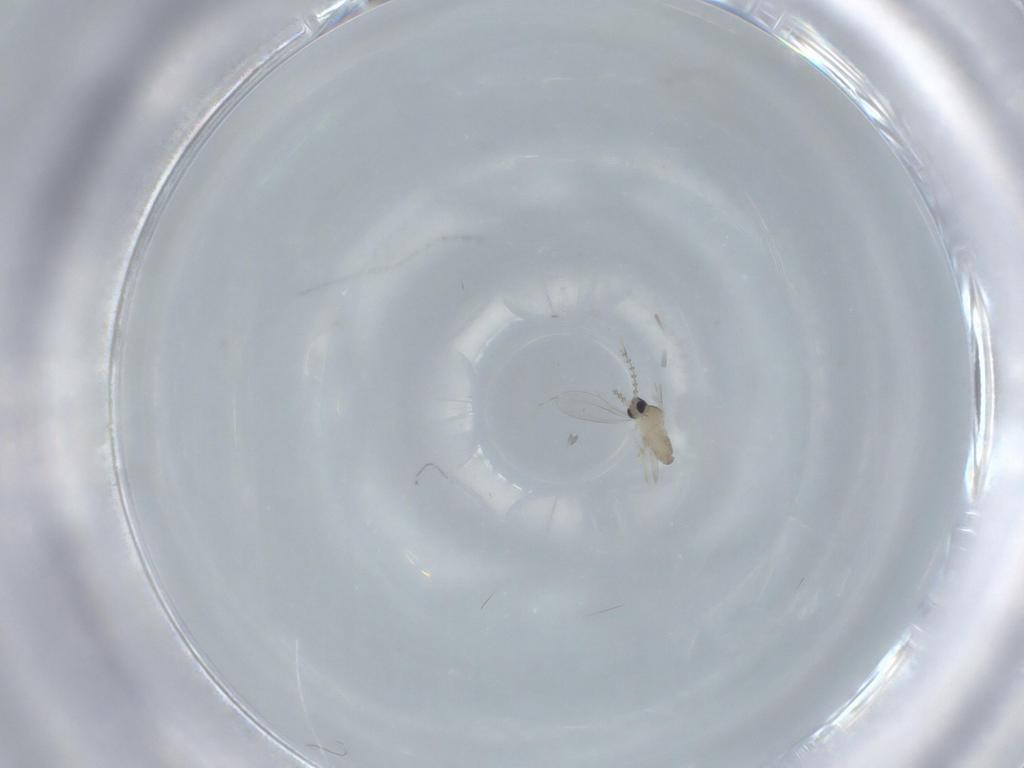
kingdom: Animalia
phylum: Arthropoda
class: Insecta
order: Diptera
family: Cecidomyiidae
